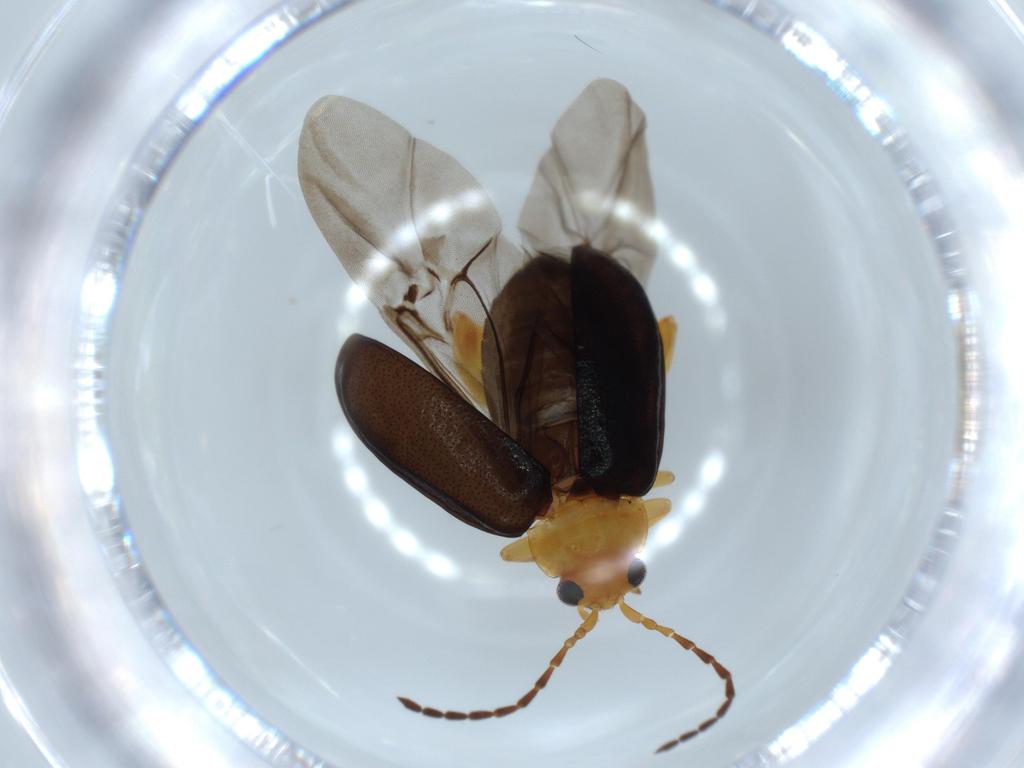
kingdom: Animalia
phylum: Arthropoda
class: Insecta
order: Coleoptera
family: Chrysomelidae
